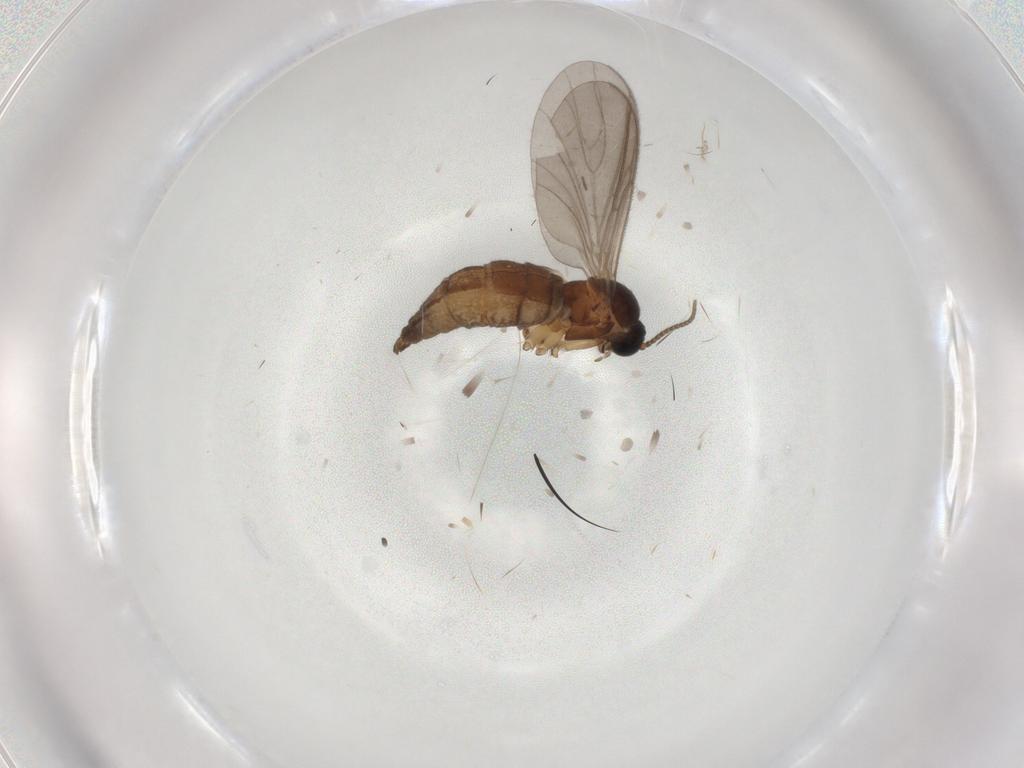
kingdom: Animalia
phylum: Arthropoda
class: Insecta
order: Diptera
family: Sciaridae
